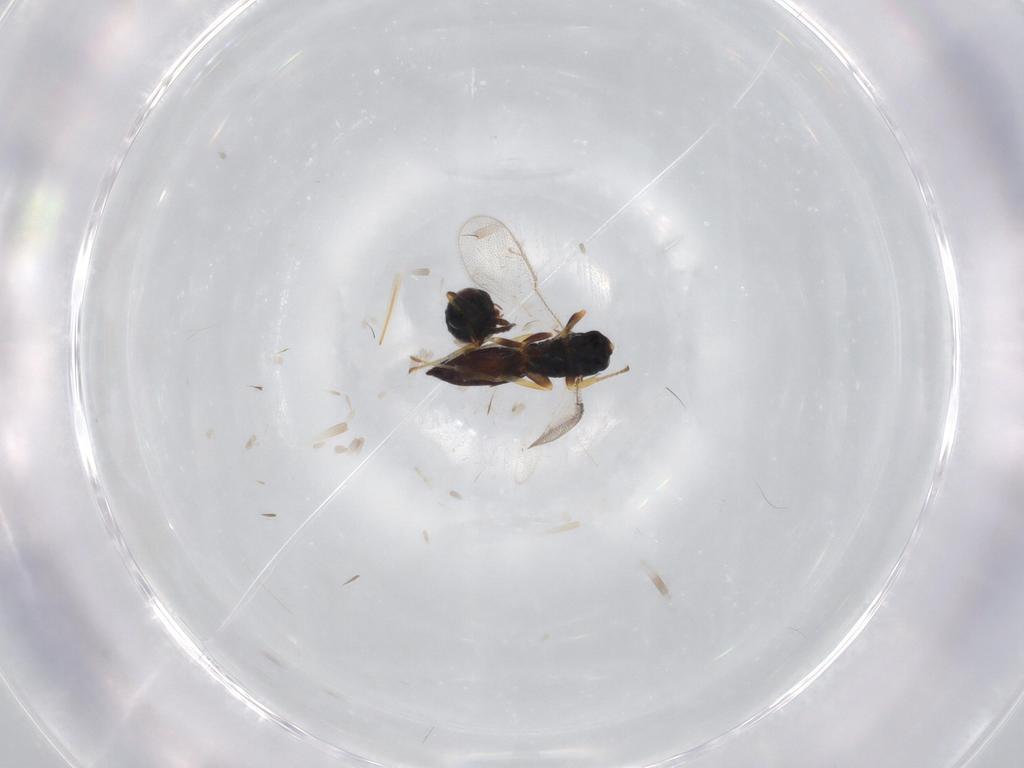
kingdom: Animalia
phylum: Arthropoda
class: Insecta
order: Hymenoptera
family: Pteromalidae
